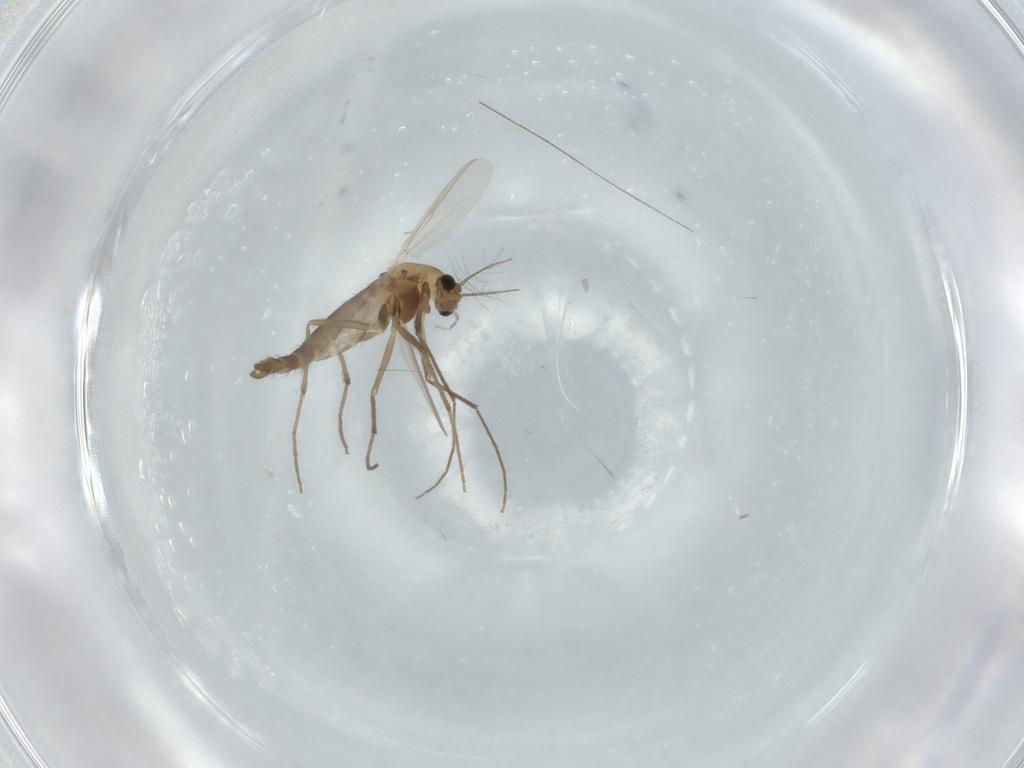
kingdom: Animalia
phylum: Arthropoda
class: Insecta
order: Diptera
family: Chironomidae
